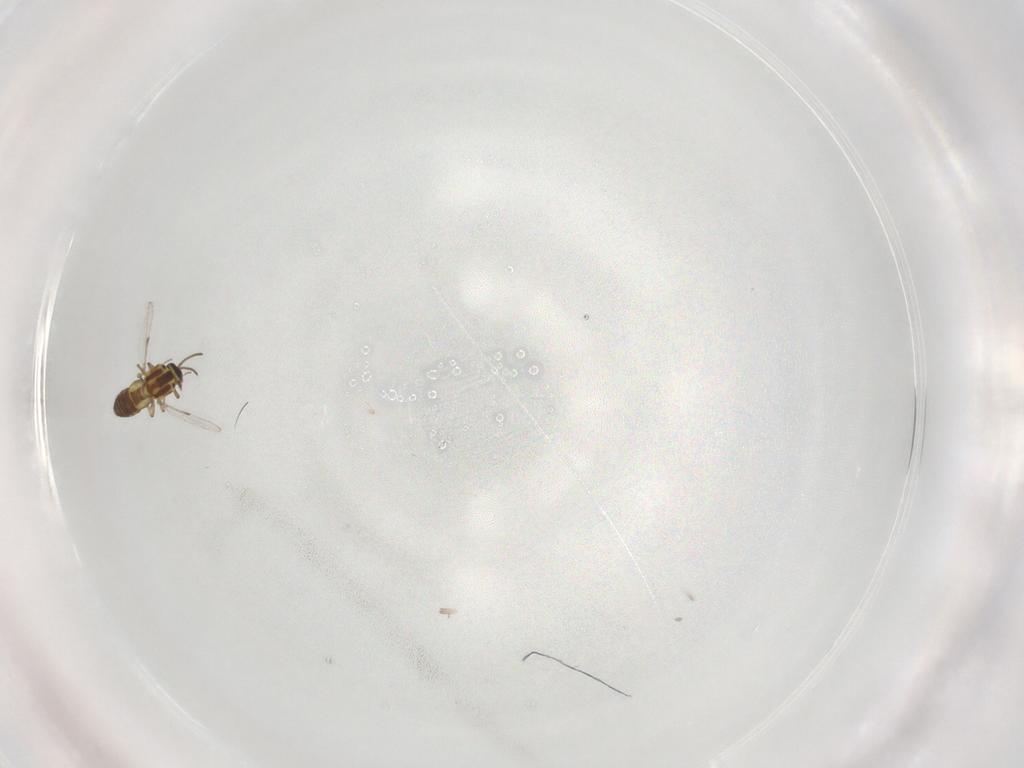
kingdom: Animalia
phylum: Arthropoda
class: Insecta
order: Diptera
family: Ceratopogonidae
